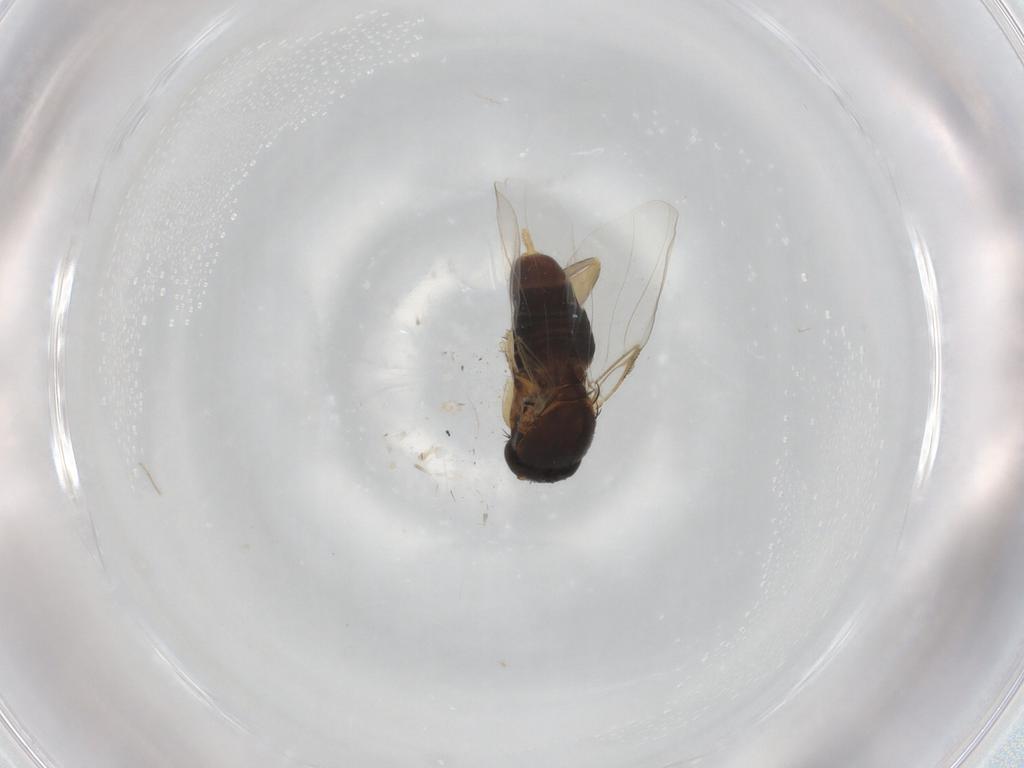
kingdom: Animalia
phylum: Arthropoda
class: Insecta
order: Diptera
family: Phoridae
